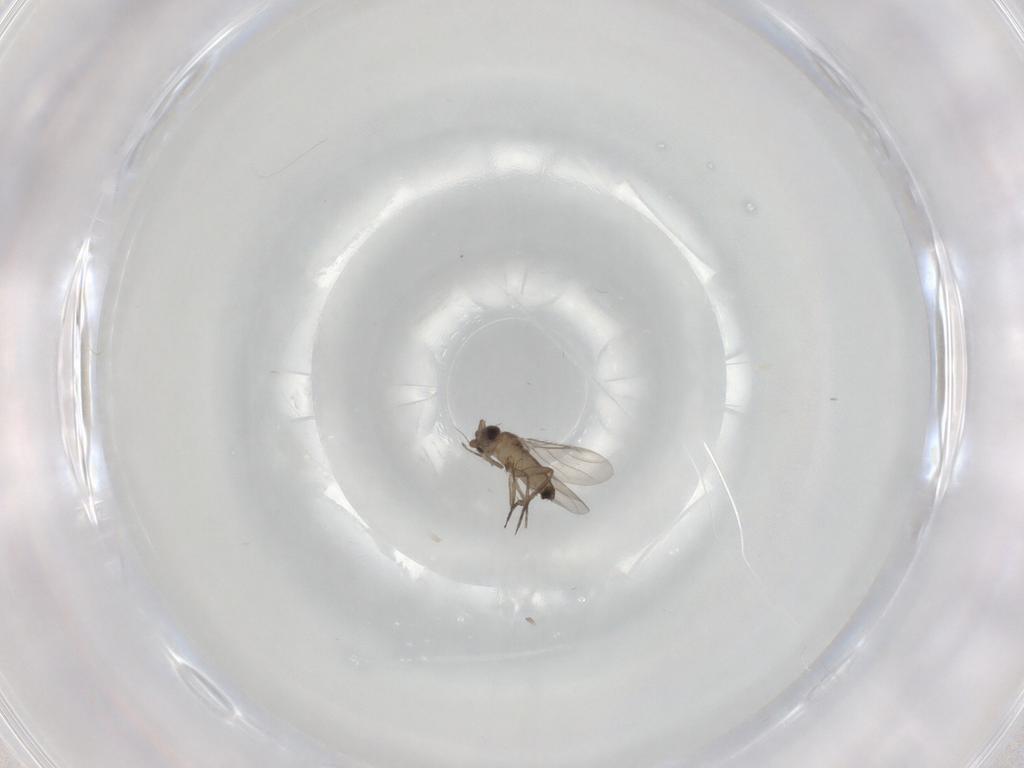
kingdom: Animalia
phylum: Arthropoda
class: Insecta
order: Diptera
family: Phoridae
